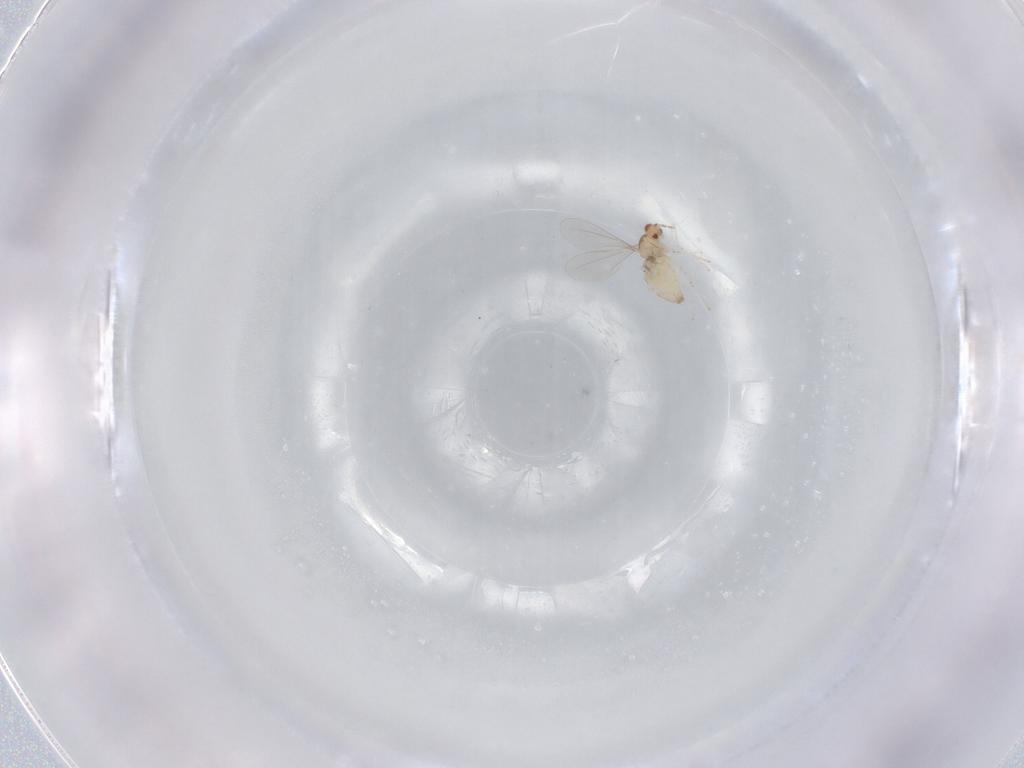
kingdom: Animalia
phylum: Arthropoda
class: Insecta
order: Diptera
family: Cecidomyiidae
